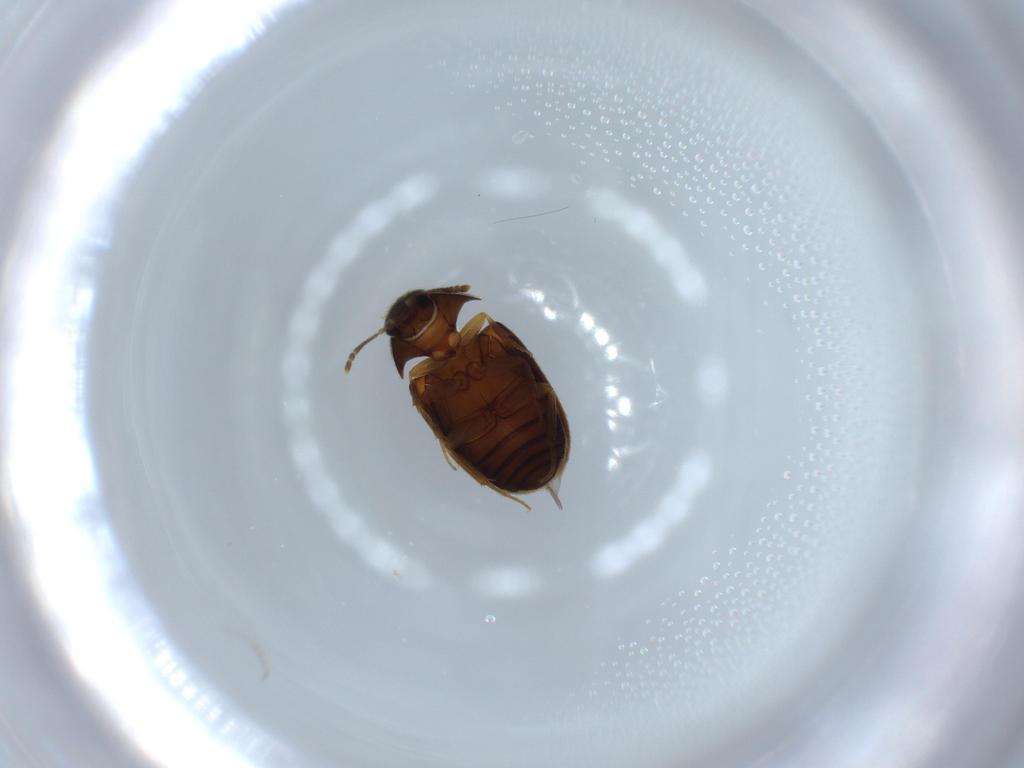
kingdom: Animalia
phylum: Arthropoda
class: Insecta
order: Coleoptera
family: Mycetophagidae
